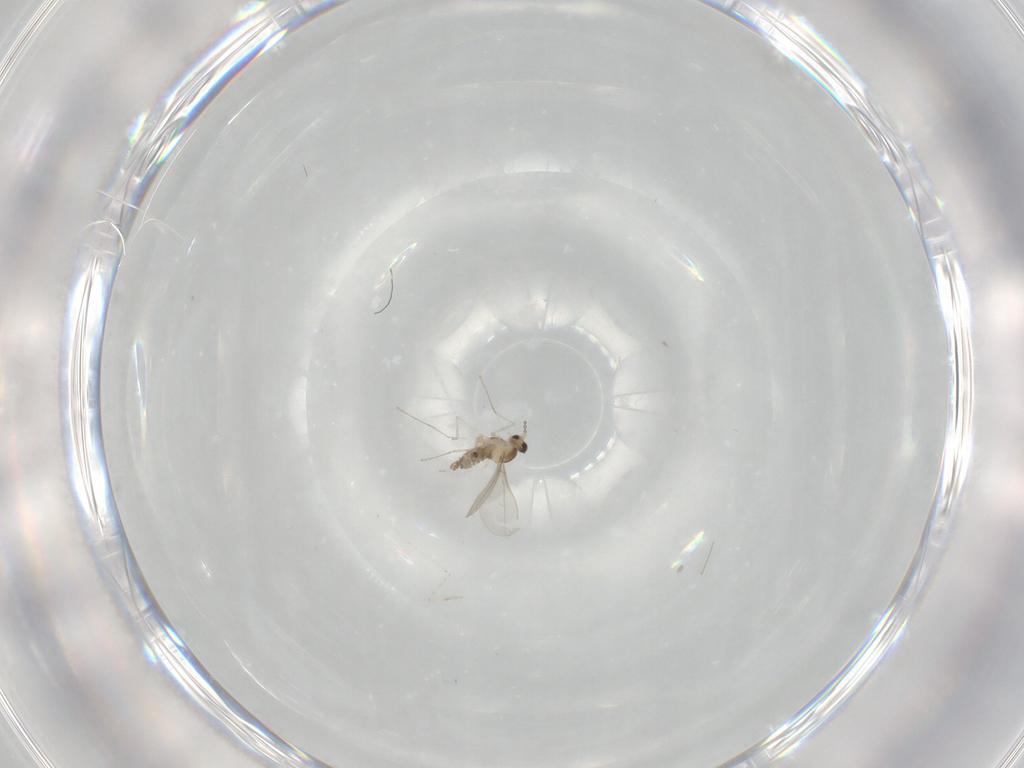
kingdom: Animalia
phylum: Arthropoda
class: Insecta
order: Diptera
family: Cecidomyiidae
